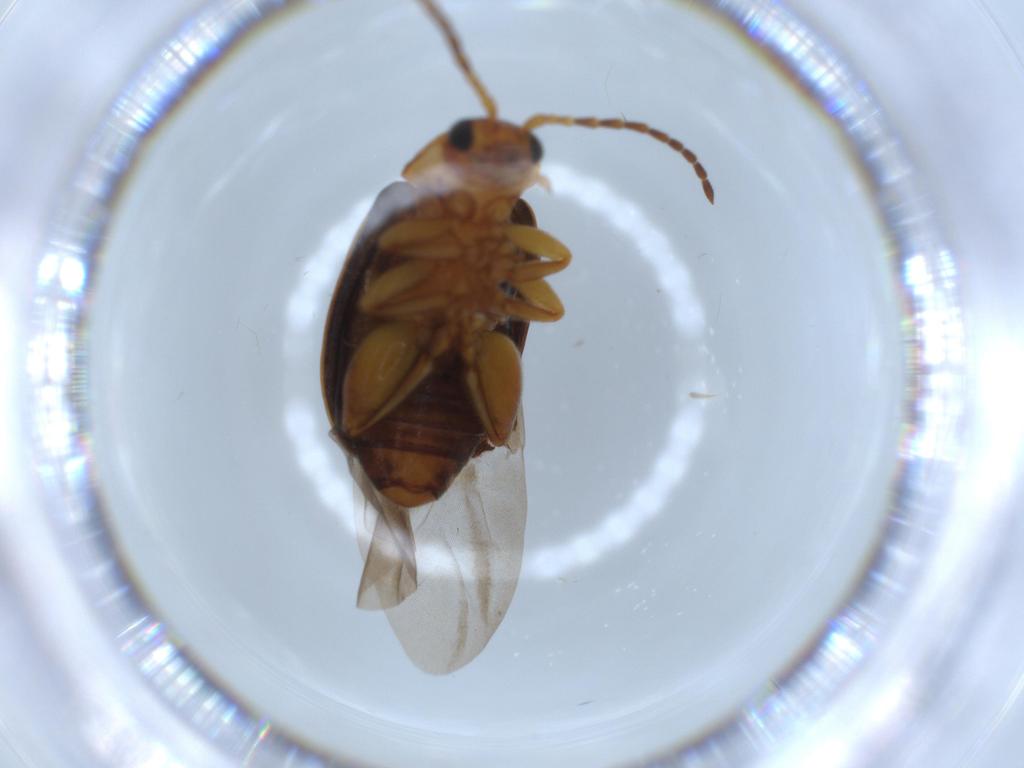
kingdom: Animalia
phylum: Arthropoda
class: Insecta
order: Coleoptera
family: Chrysomelidae
